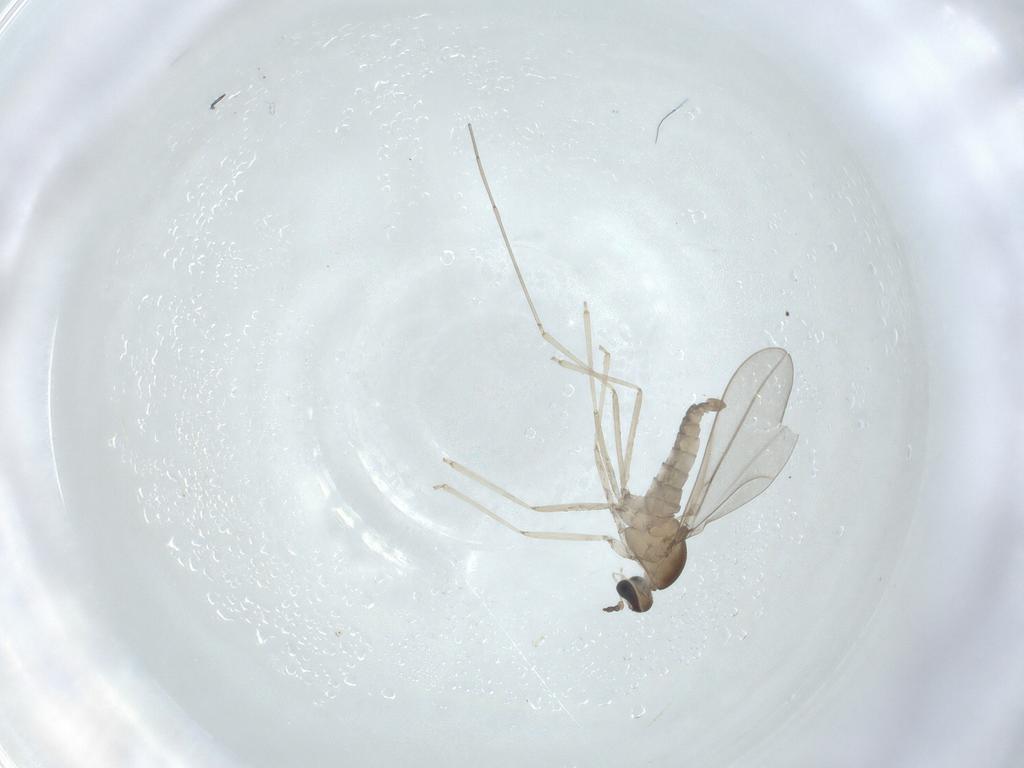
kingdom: Animalia
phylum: Arthropoda
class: Insecta
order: Diptera
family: Cecidomyiidae
